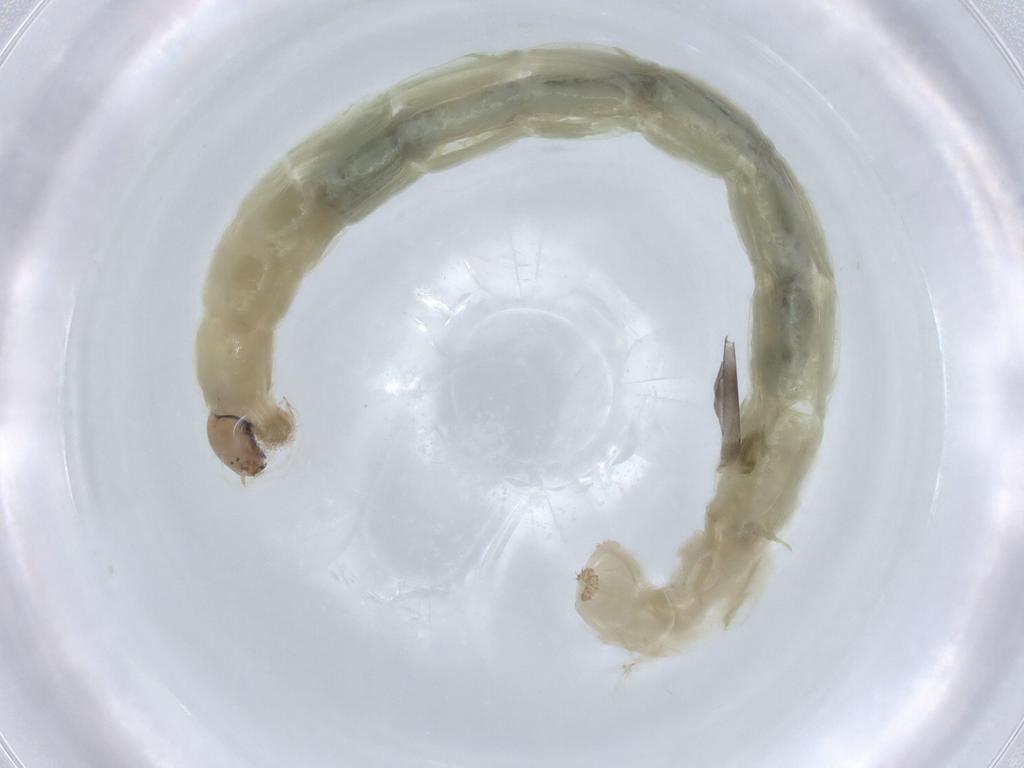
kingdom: Animalia
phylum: Arthropoda
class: Insecta
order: Diptera
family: Chironomidae
